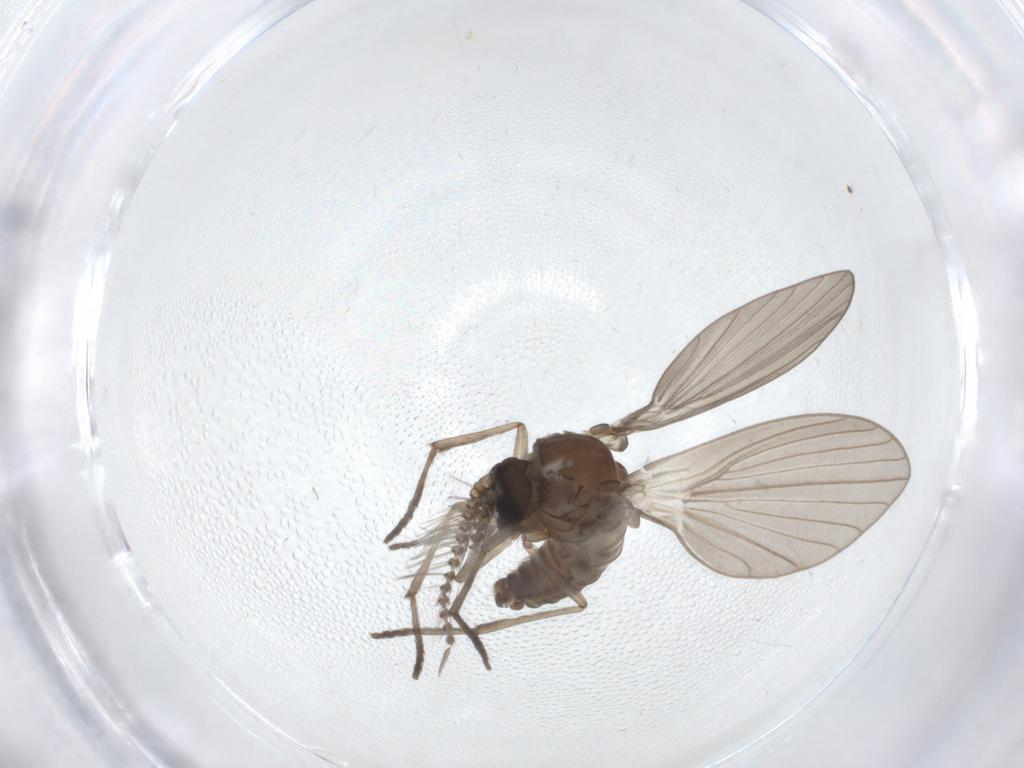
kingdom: Animalia
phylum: Arthropoda
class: Insecta
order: Diptera
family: Psychodidae
